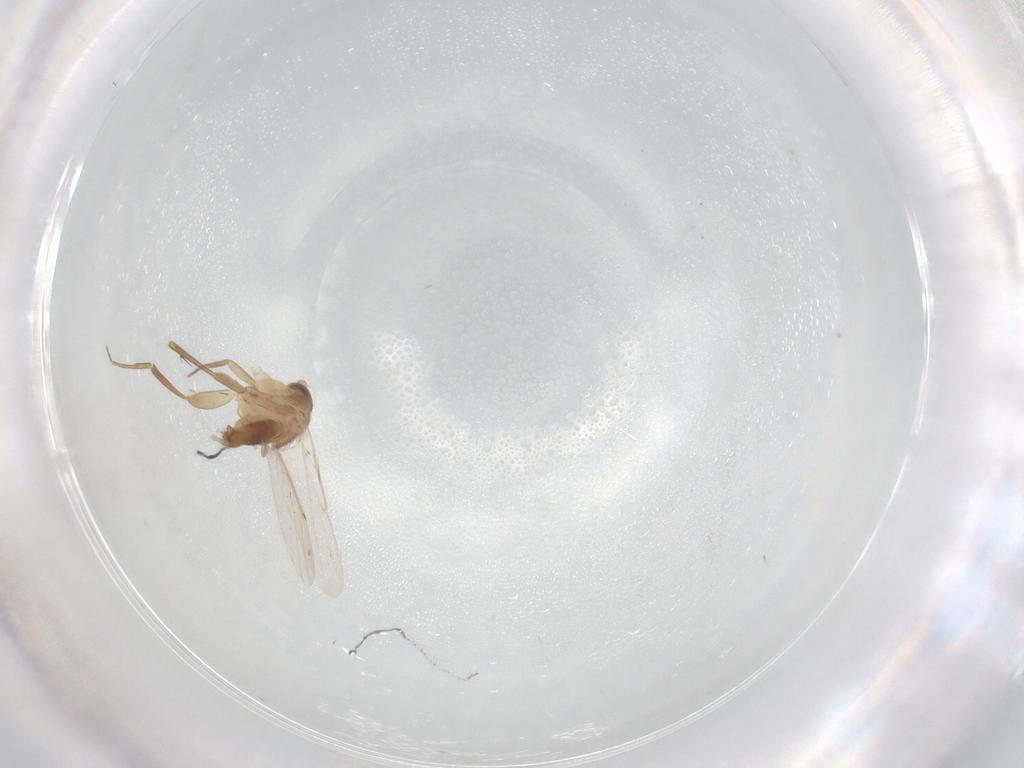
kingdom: Animalia
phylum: Arthropoda
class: Insecta
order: Diptera
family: Phoridae
